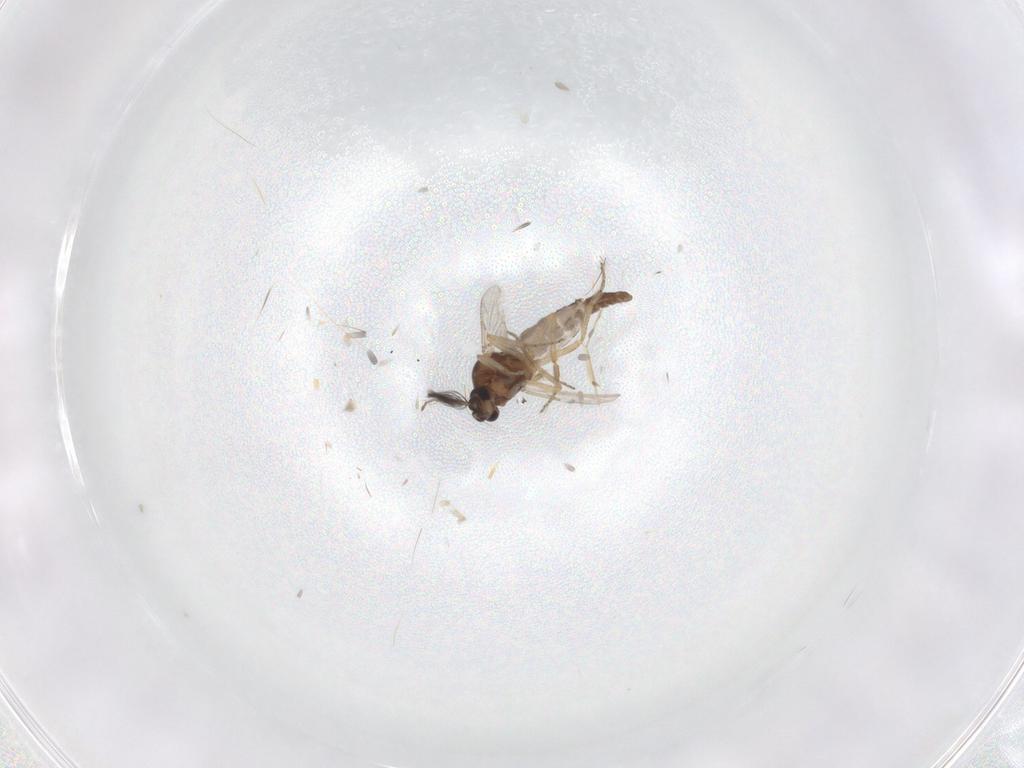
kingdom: Animalia
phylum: Arthropoda
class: Insecta
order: Diptera
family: Ceratopogonidae
